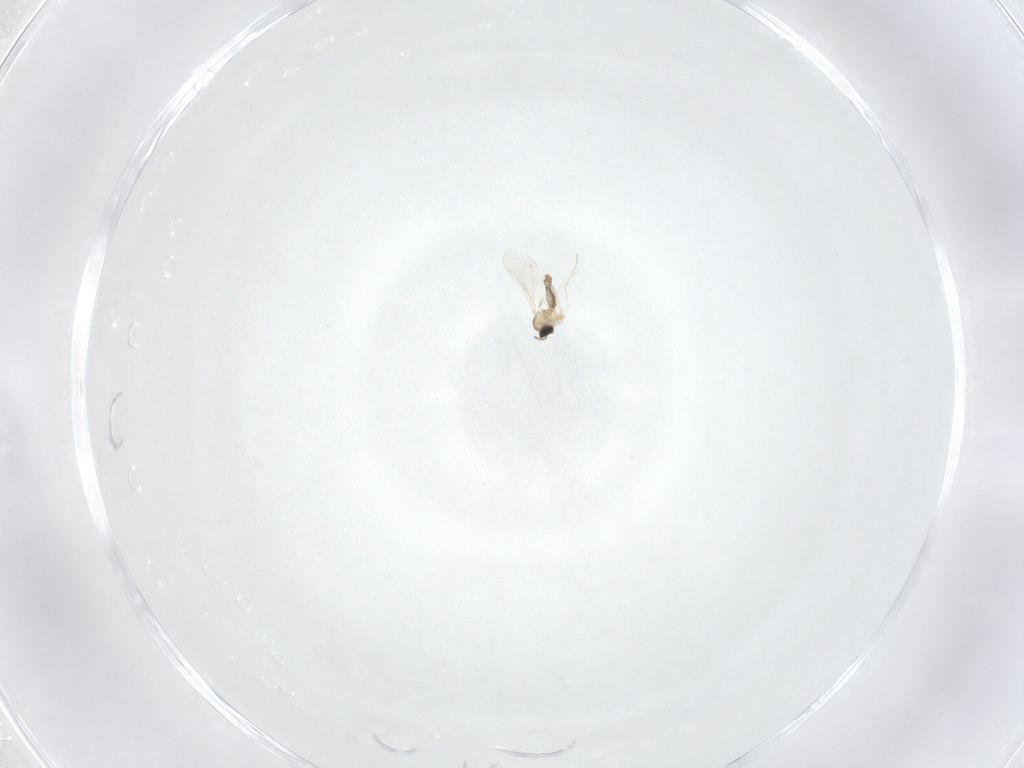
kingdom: Animalia
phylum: Arthropoda
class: Insecta
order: Diptera
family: Cecidomyiidae
